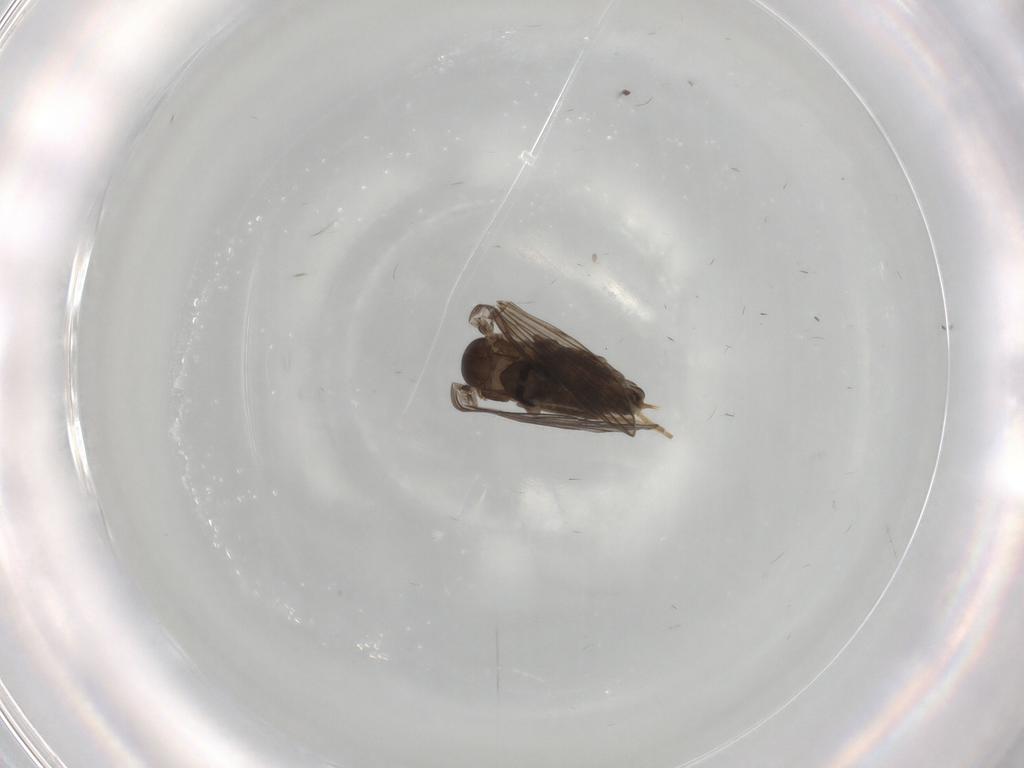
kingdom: Animalia
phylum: Arthropoda
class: Insecta
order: Diptera
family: Psychodidae
